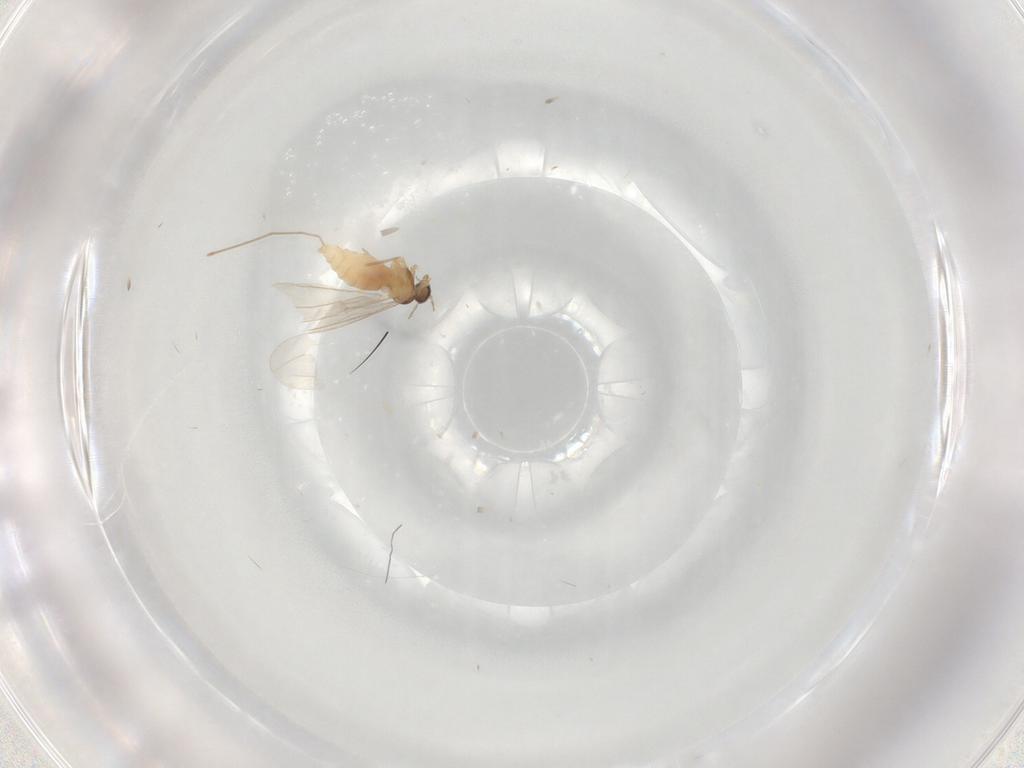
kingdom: Animalia
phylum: Arthropoda
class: Insecta
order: Diptera
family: Cecidomyiidae
